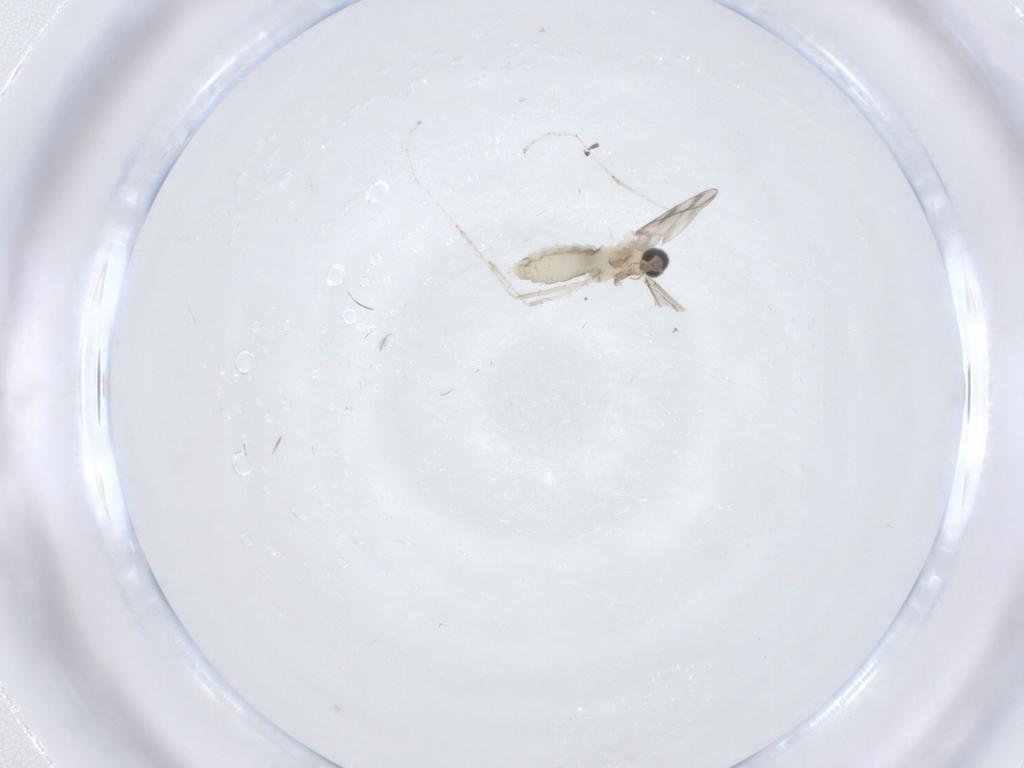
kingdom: Animalia
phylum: Arthropoda
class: Insecta
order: Diptera
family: Cecidomyiidae
